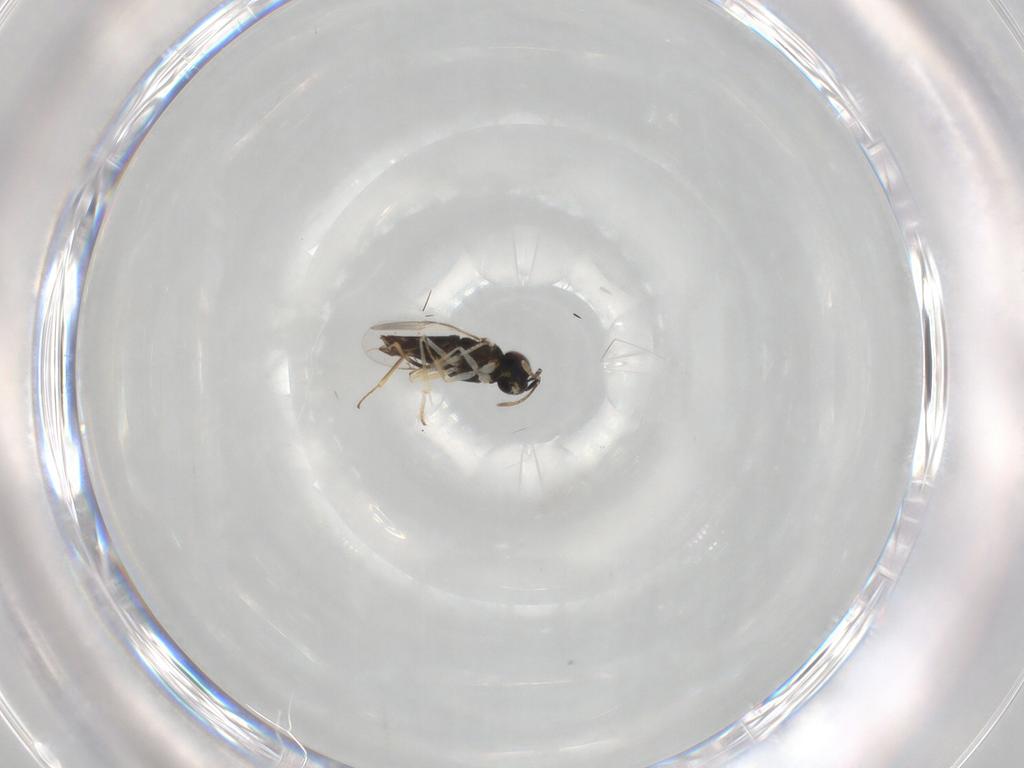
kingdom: Animalia
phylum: Arthropoda
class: Insecta
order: Hymenoptera
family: Encyrtidae
